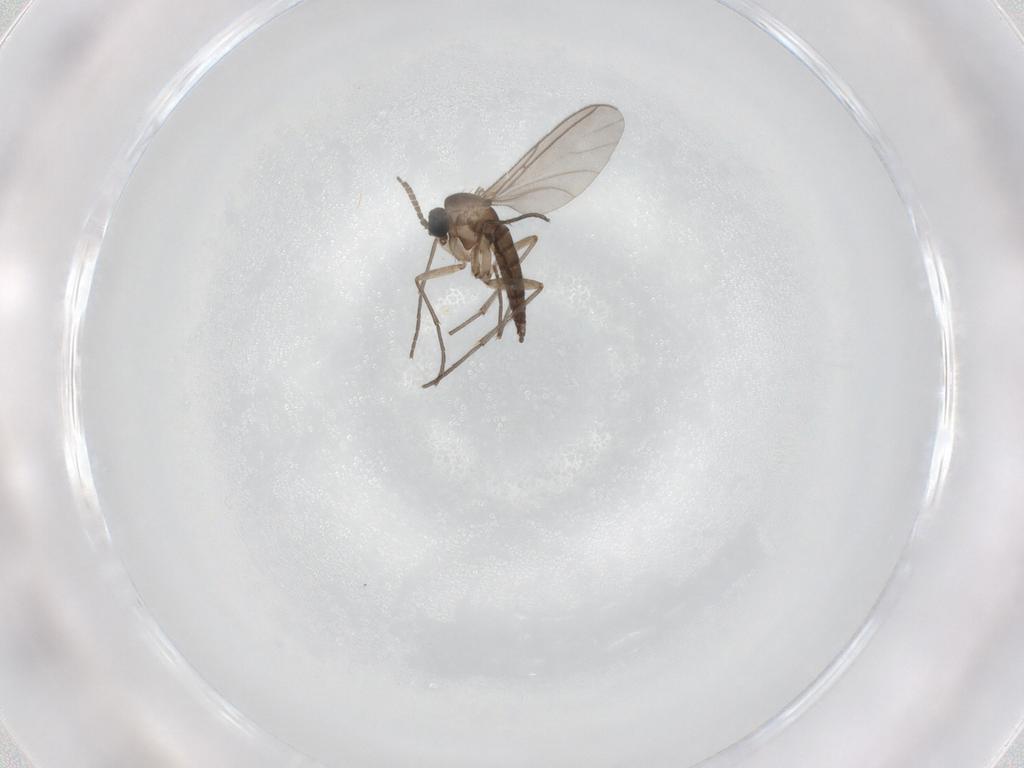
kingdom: Animalia
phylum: Arthropoda
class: Insecta
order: Diptera
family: Sciaridae
